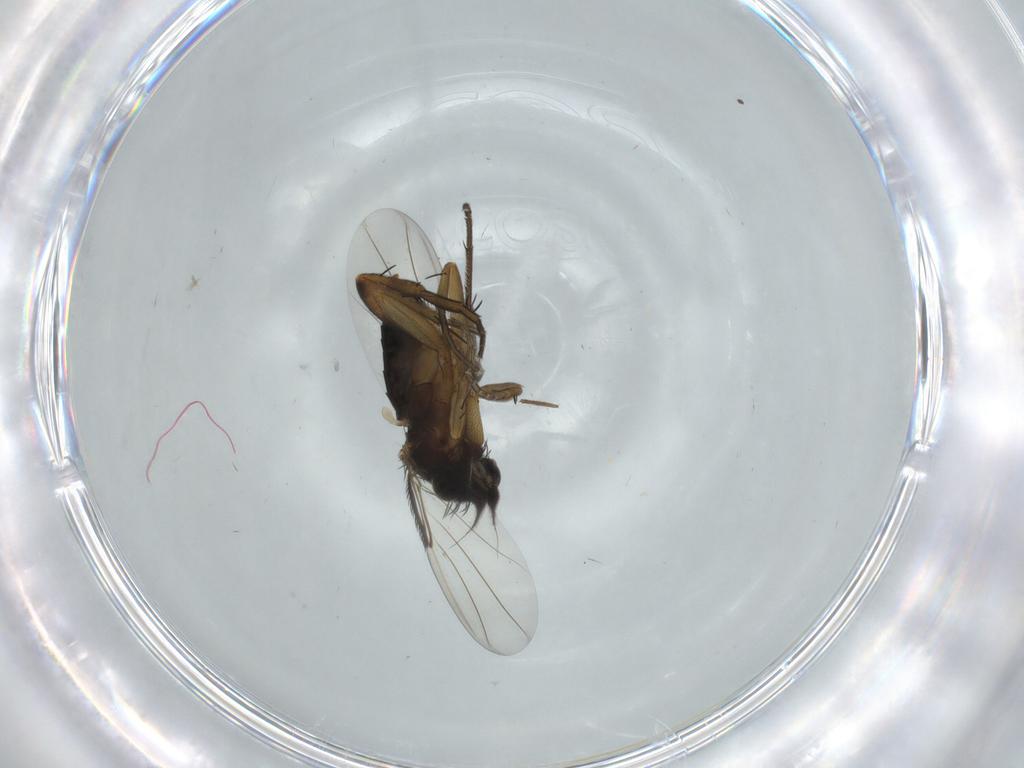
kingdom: Animalia
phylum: Arthropoda
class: Insecta
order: Diptera
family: Phoridae
